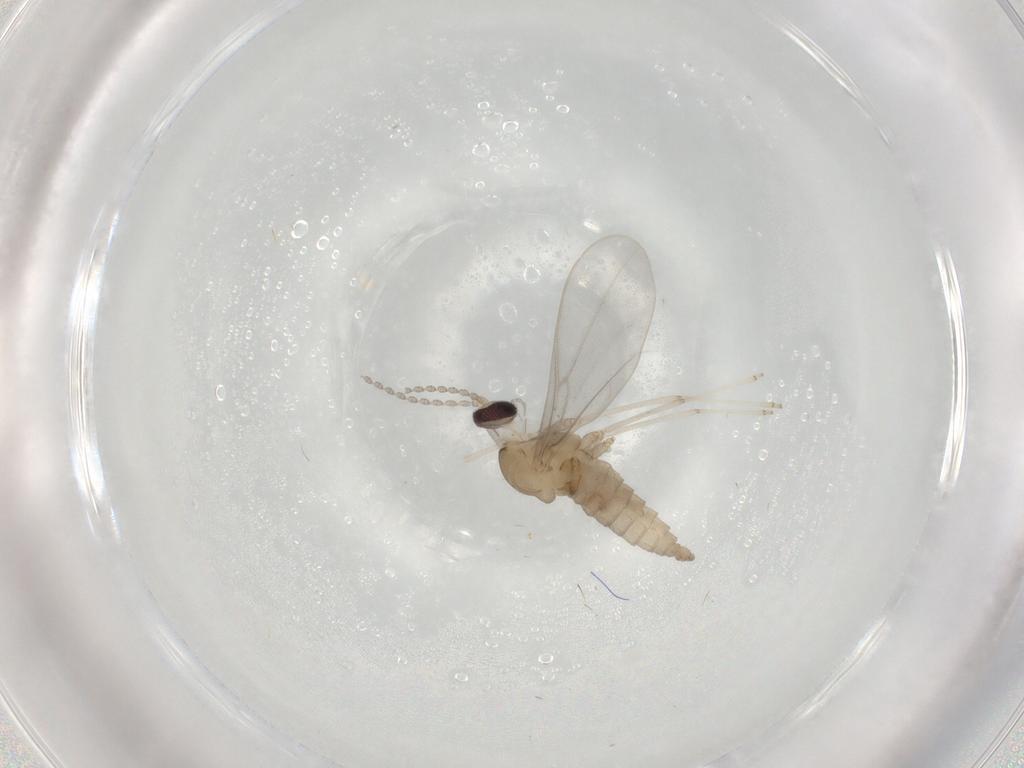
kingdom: Animalia
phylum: Arthropoda
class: Insecta
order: Diptera
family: Cecidomyiidae
